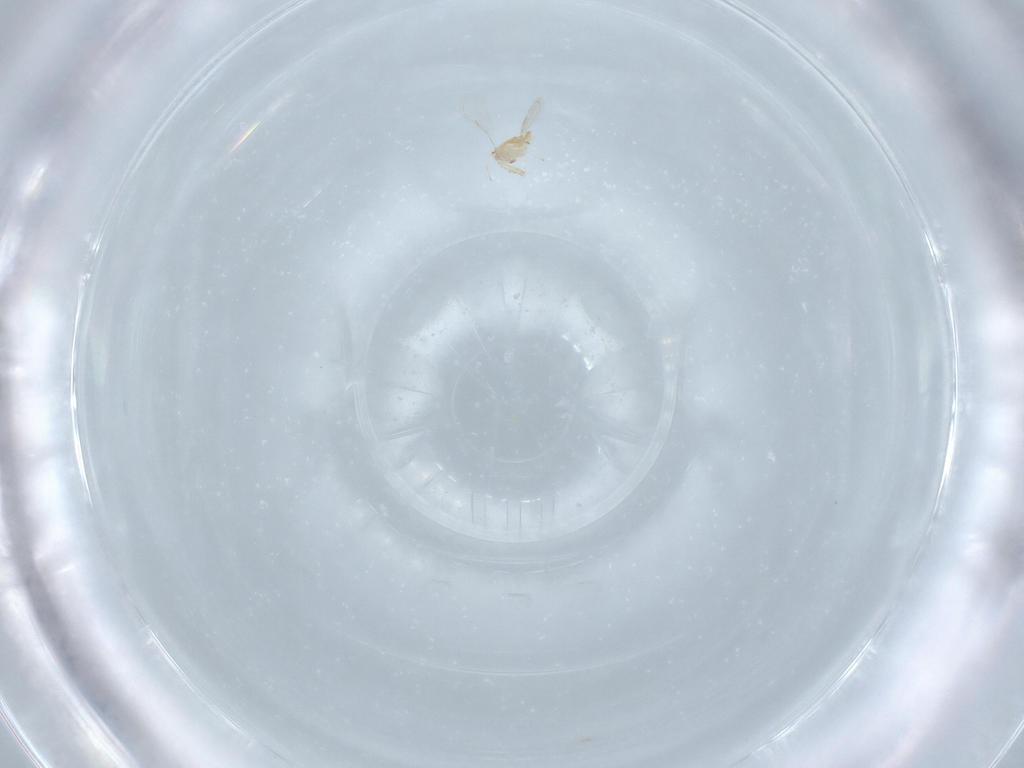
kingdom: Animalia
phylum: Arthropoda
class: Insecta
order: Diptera
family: Dolichopodidae
